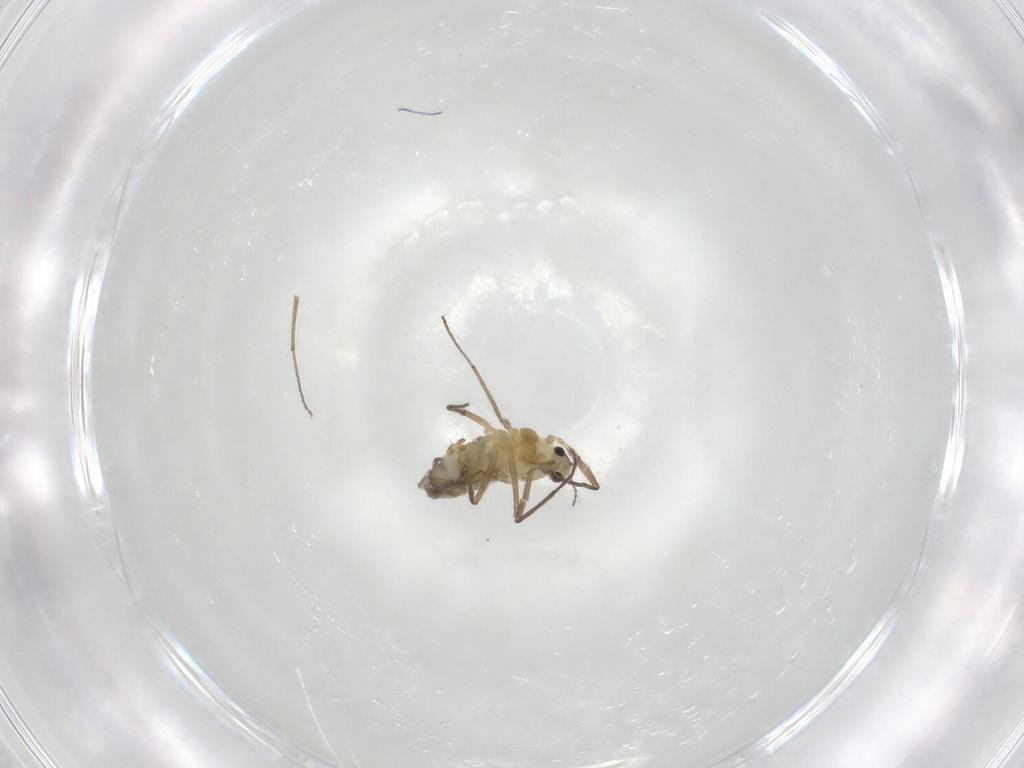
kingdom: Animalia
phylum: Arthropoda
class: Insecta
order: Diptera
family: Chironomidae
